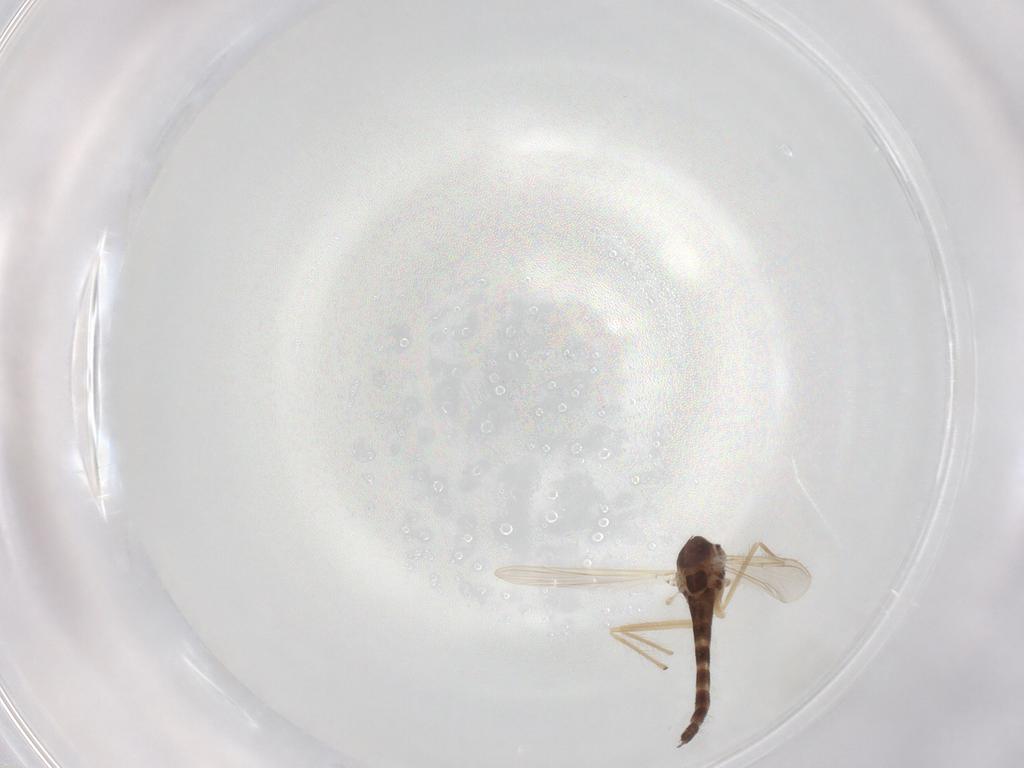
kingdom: Animalia
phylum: Arthropoda
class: Insecta
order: Diptera
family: Chironomidae
